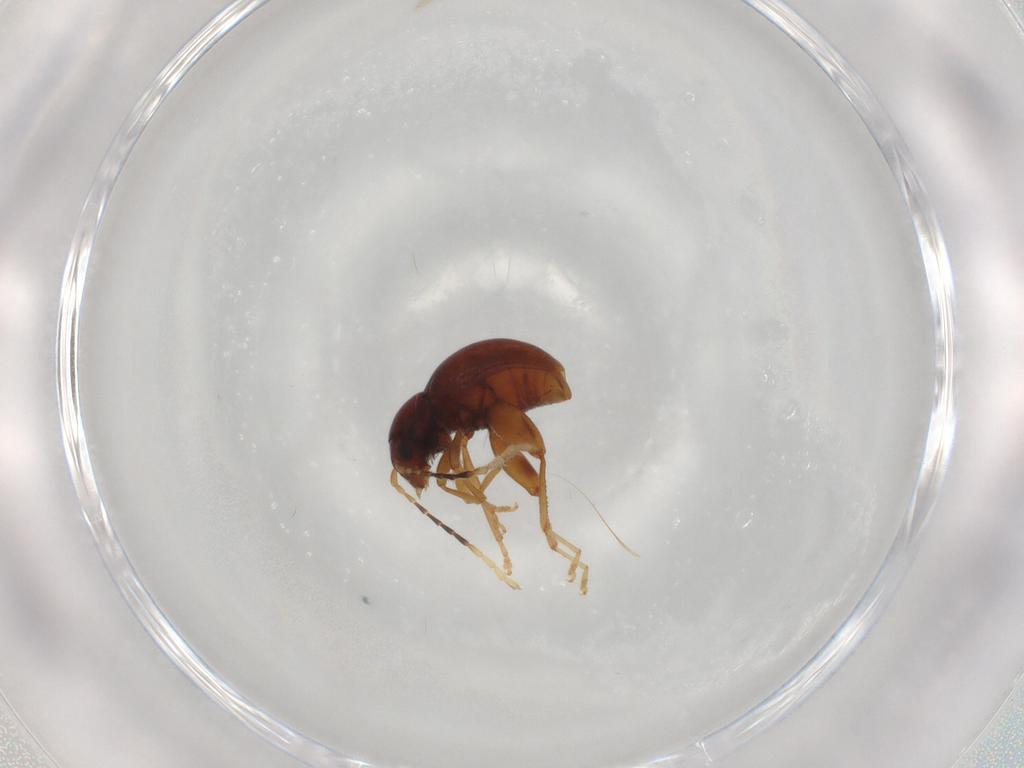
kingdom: Animalia
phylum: Arthropoda
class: Insecta
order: Coleoptera
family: Chrysomelidae
